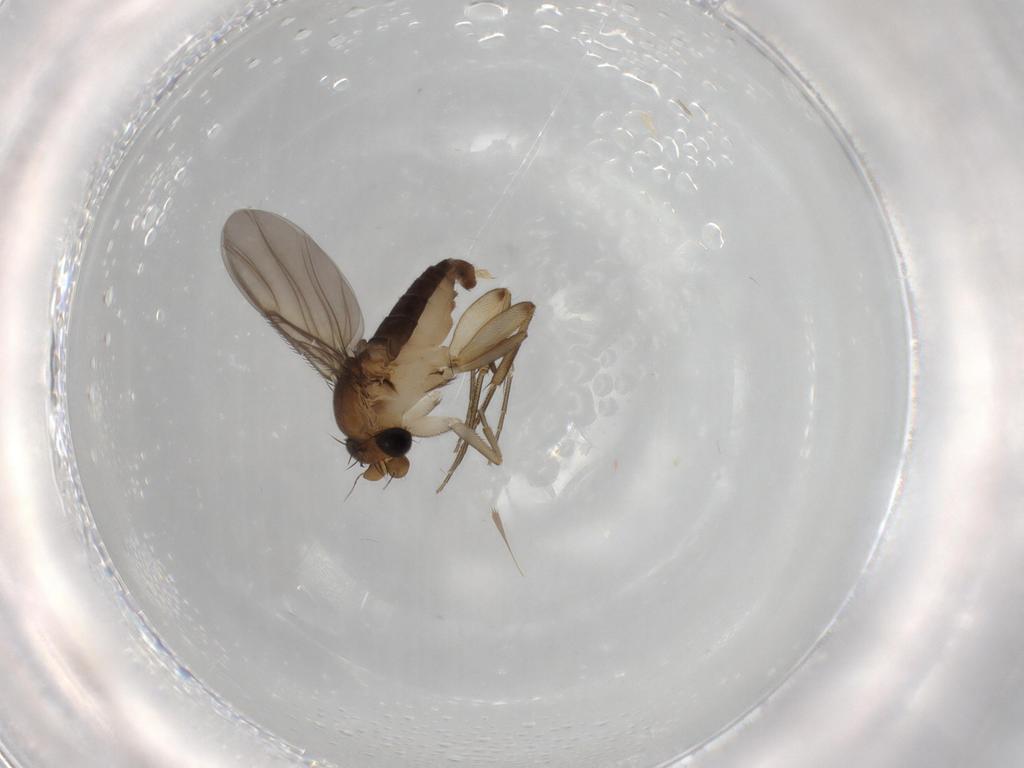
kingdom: Animalia
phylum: Arthropoda
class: Insecta
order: Diptera
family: Phoridae
